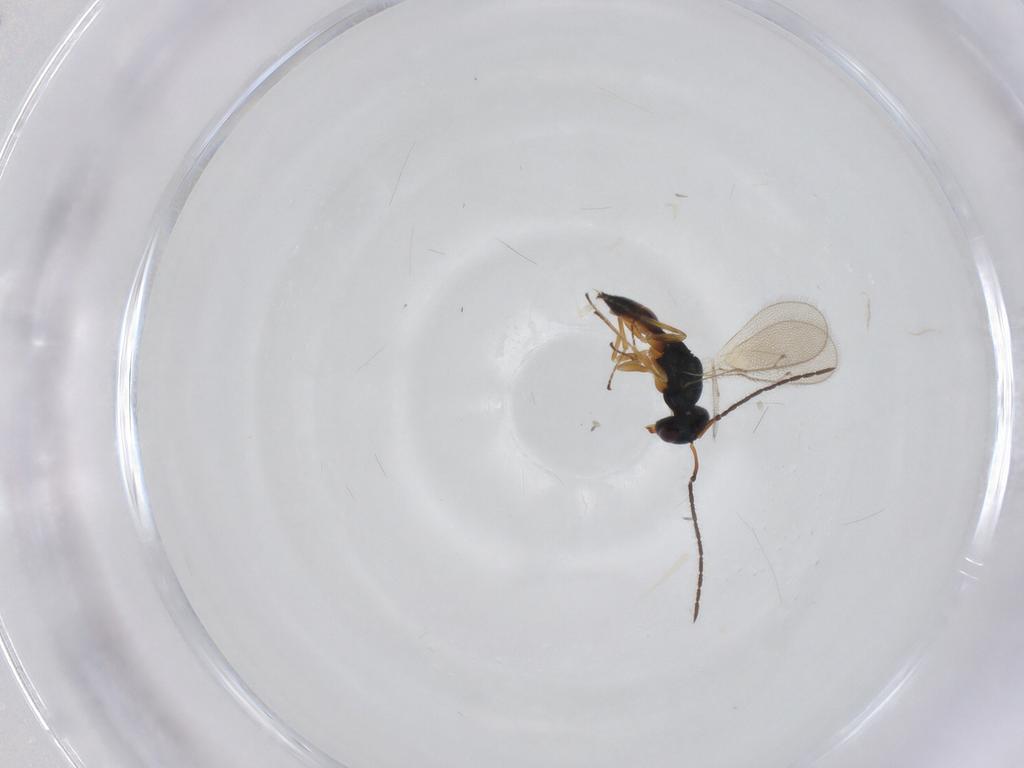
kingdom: Animalia
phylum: Arthropoda
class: Insecta
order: Hymenoptera
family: Pteromalidae
